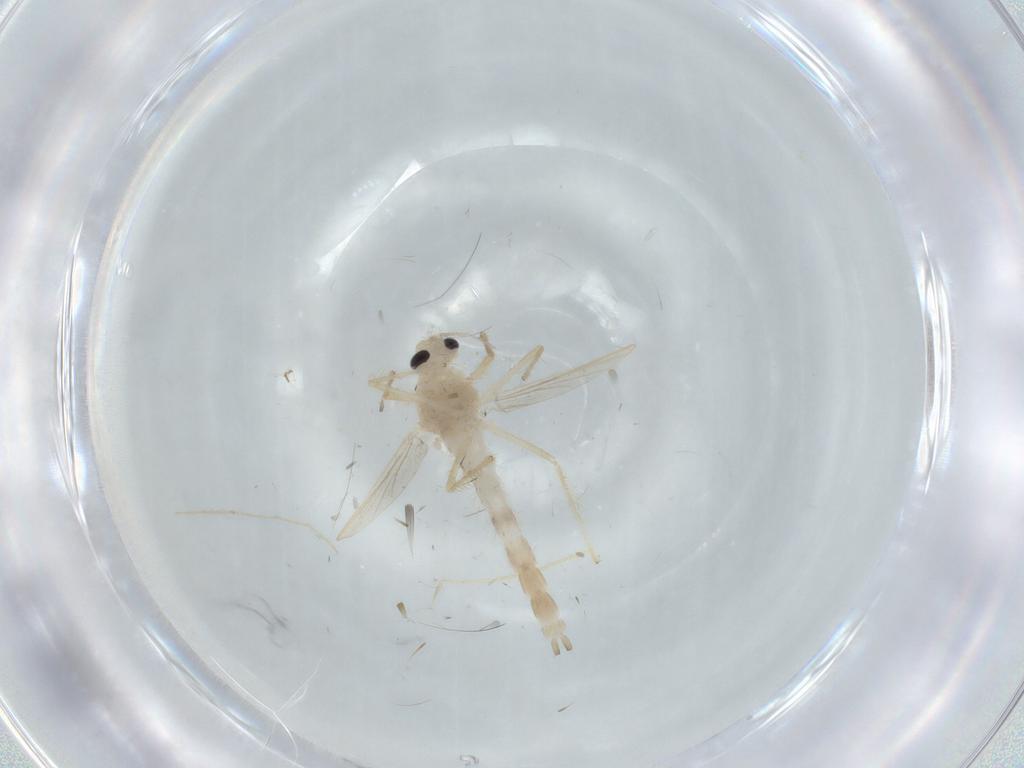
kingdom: Animalia
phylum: Arthropoda
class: Insecta
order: Diptera
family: Chironomidae
